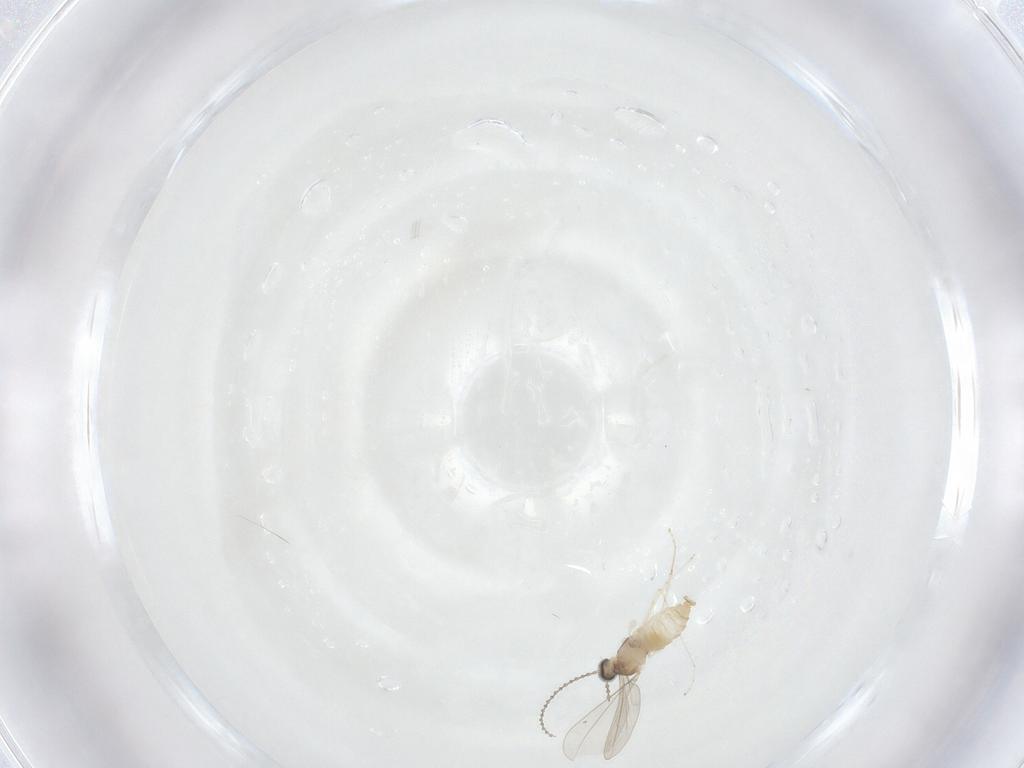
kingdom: Animalia
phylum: Arthropoda
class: Insecta
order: Diptera
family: Cecidomyiidae
